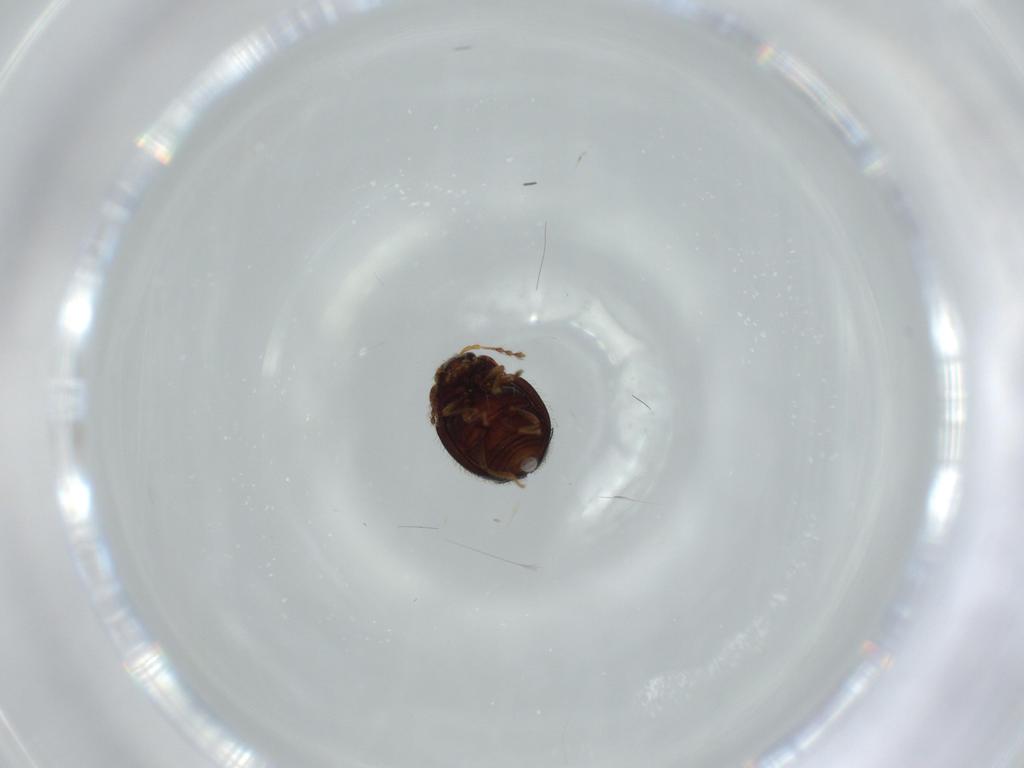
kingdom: Animalia
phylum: Arthropoda
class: Insecta
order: Coleoptera
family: Anamorphidae
